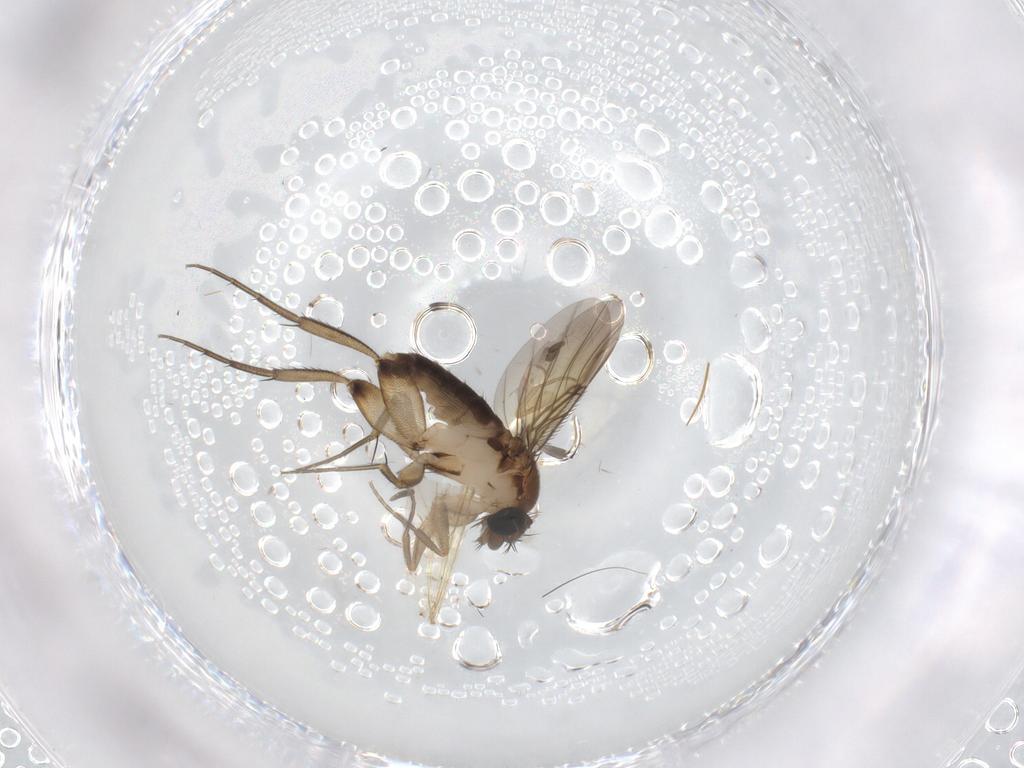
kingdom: Animalia
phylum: Arthropoda
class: Insecta
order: Diptera
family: Phoridae
